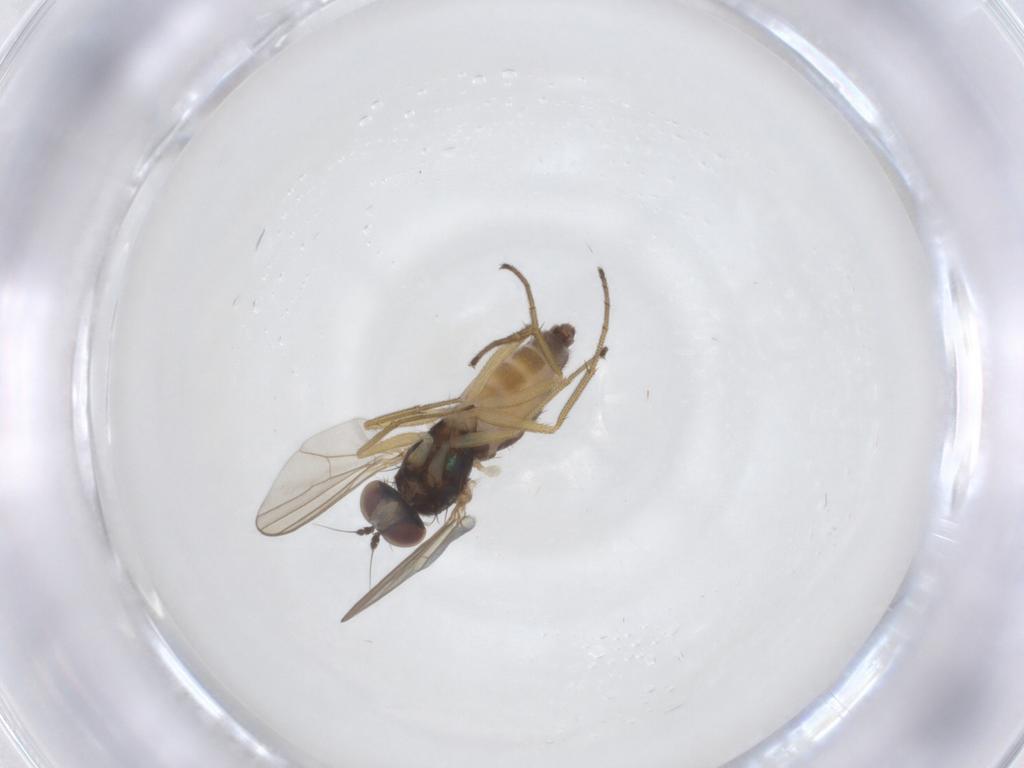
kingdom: Animalia
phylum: Arthropoda
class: Insecta
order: Diptera
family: Dolichopodidae
